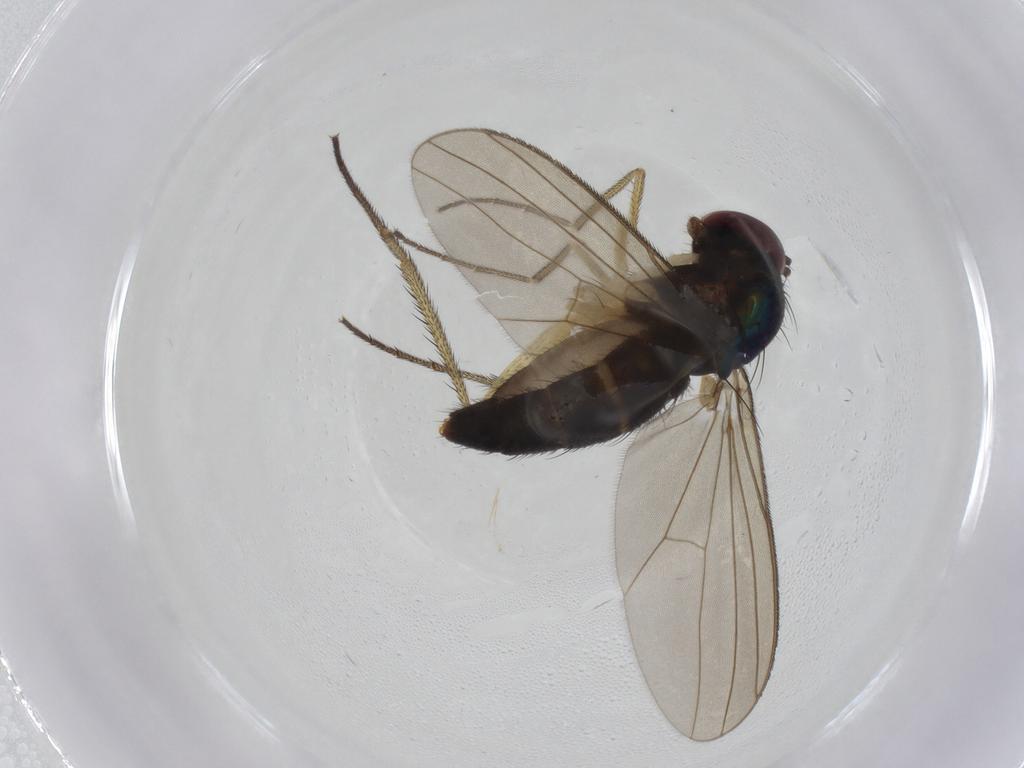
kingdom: Animalia
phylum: Arthropoda
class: Insecta
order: Diptera
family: Dolichopodidae
